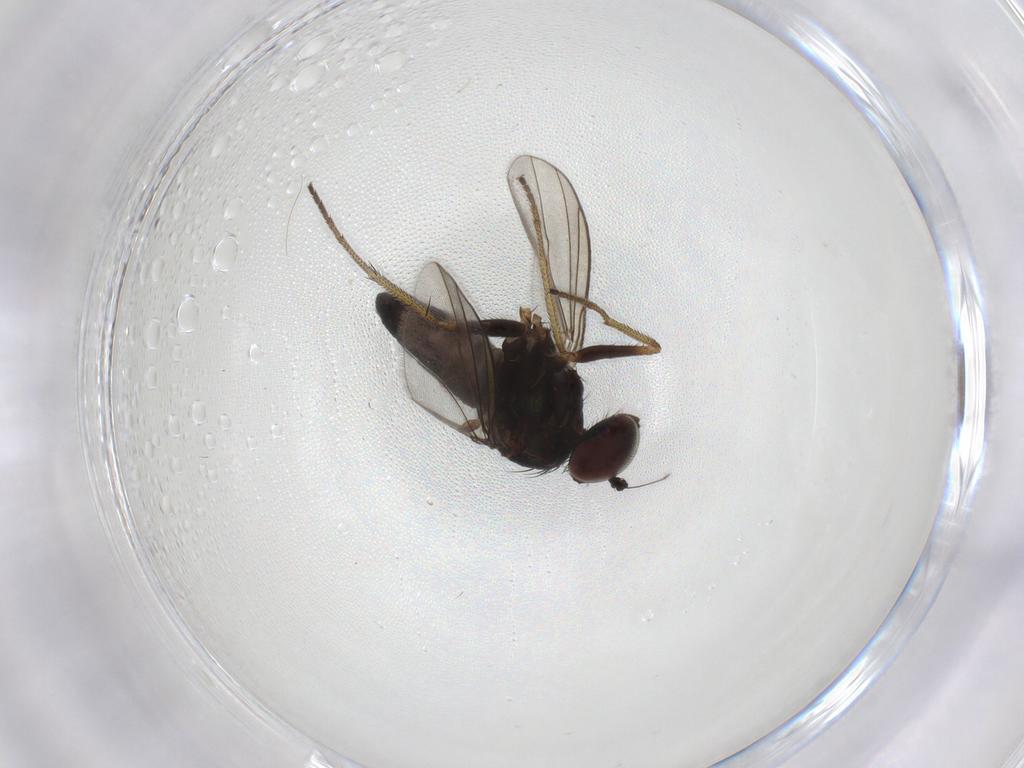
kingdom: Animalia
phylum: Arthropoda
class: Insecta
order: Diptera
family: Dolichopodidae
